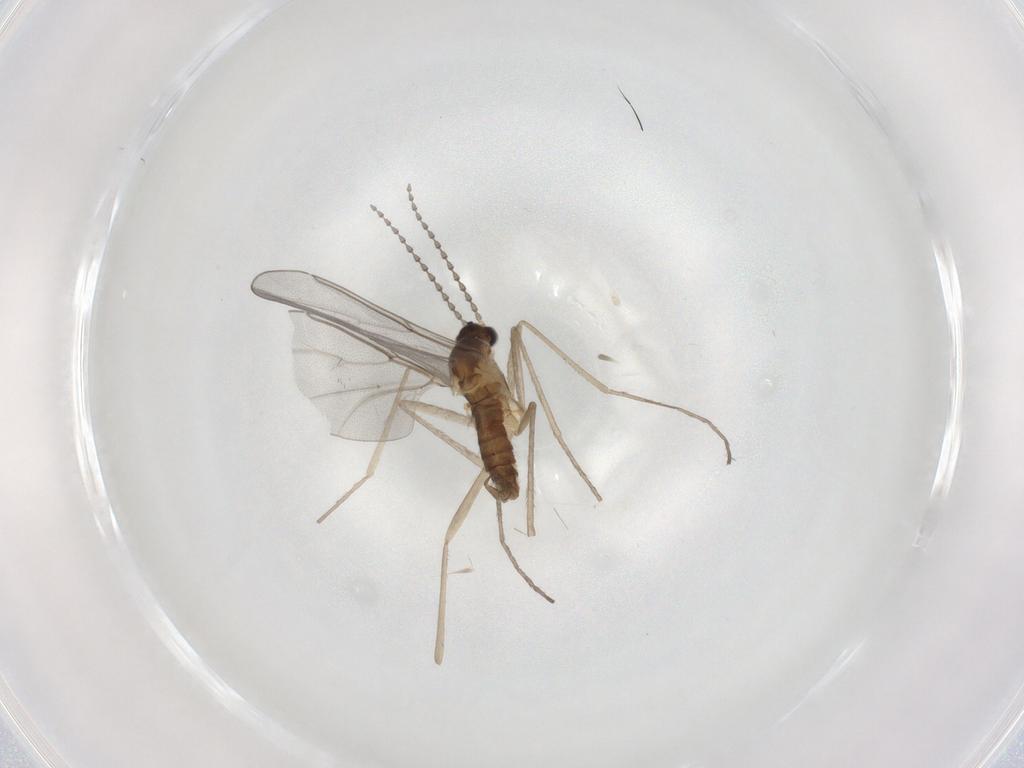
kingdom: Animalia
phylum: Arthropoda
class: Insecta
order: Diptera
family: Cecidomyiidae
